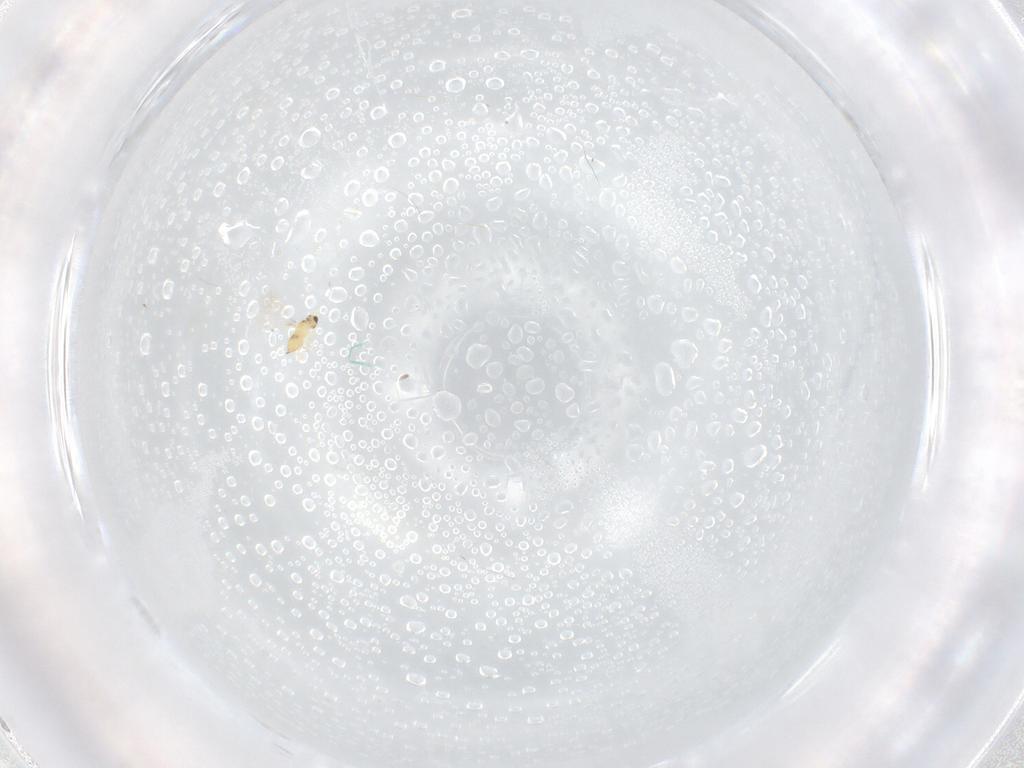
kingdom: Animalia
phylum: Arthropoda
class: Insecta
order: Hymenoptera
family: Mymaridae
